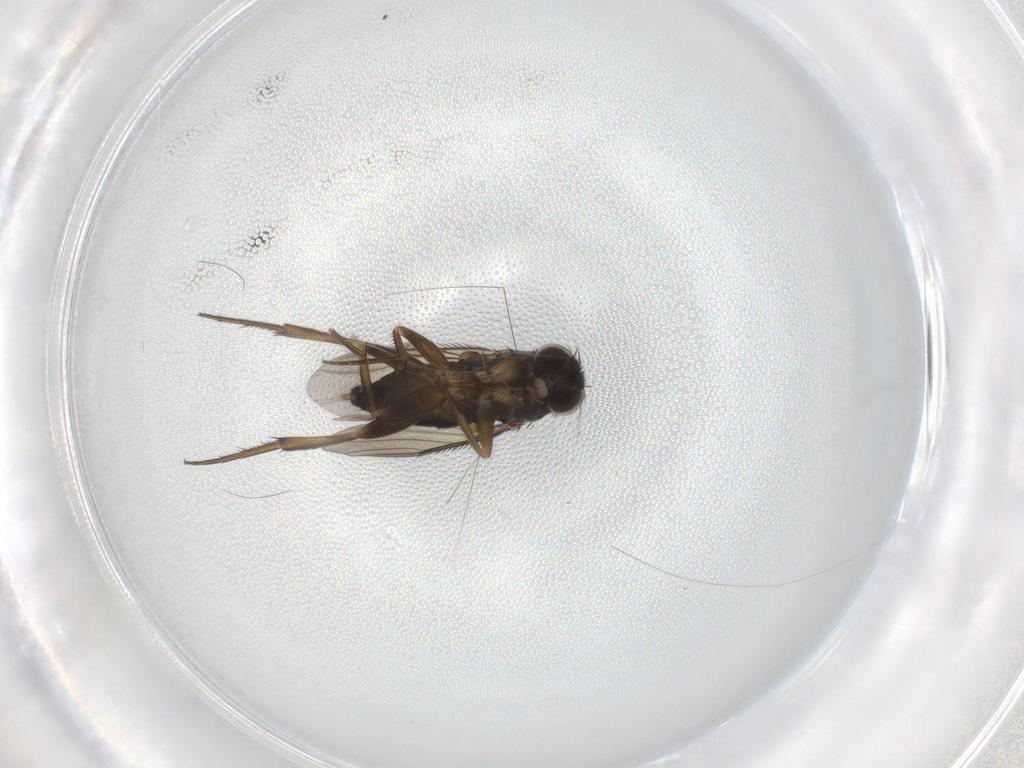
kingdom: Animalia
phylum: Arthropoda
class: Insecta
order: Diptera
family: Phoridae
